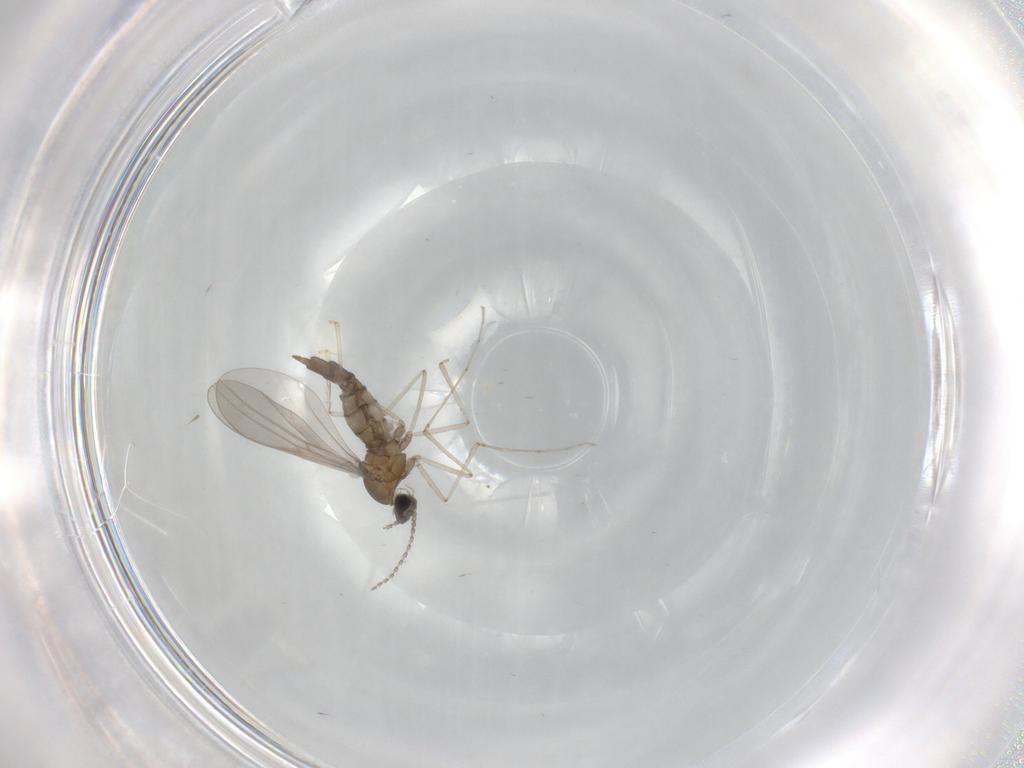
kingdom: Animalia
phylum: Arthropoda
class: Insecta
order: Diptera
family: Cecidomyiidae
